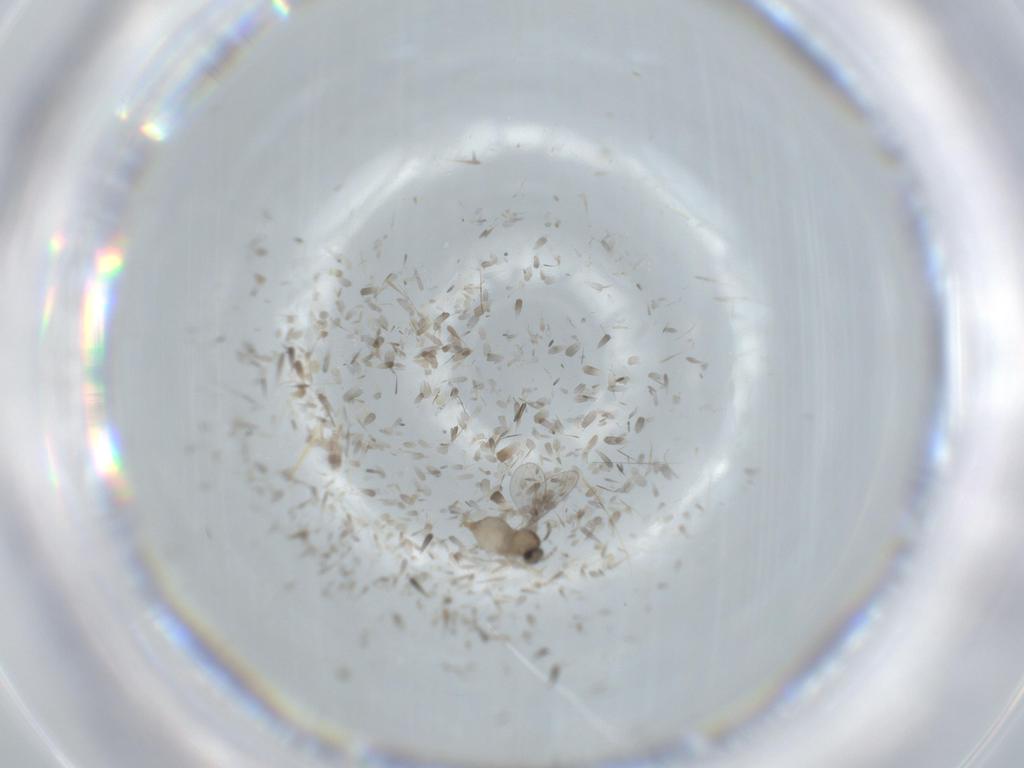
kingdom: Animalia
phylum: Arthropoda
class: Insecta
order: Diptera
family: Cecidomyiidae
